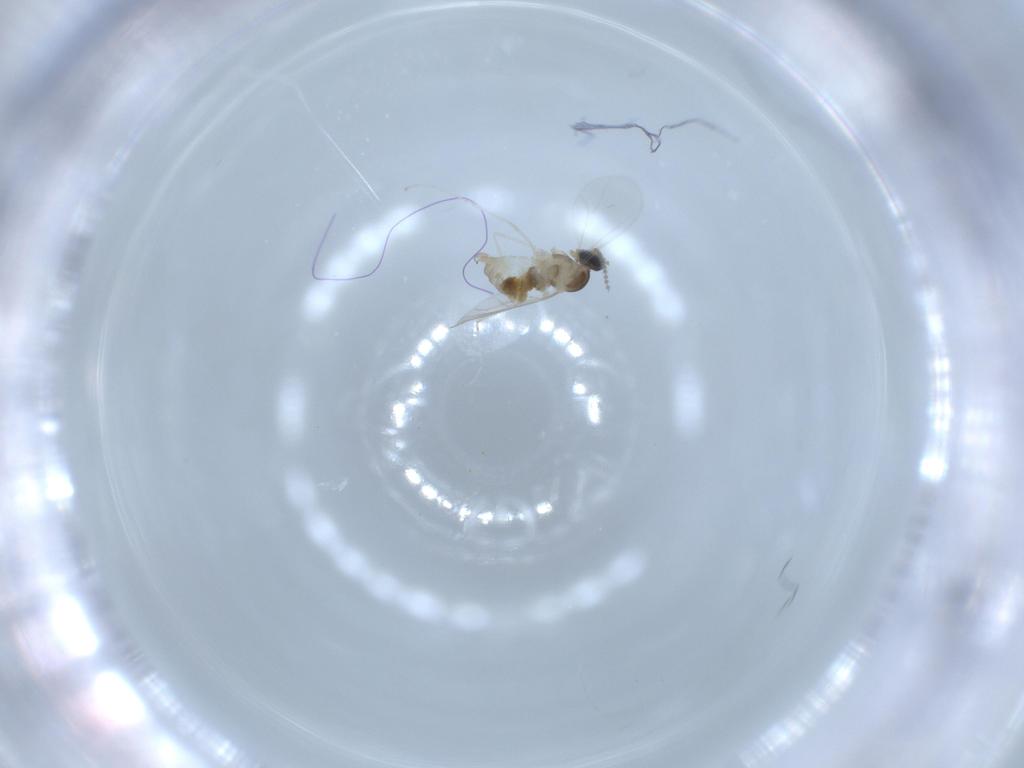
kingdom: Animalia
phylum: Arthropoda
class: Insecta
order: Diptera
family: Cecidomyiidae
